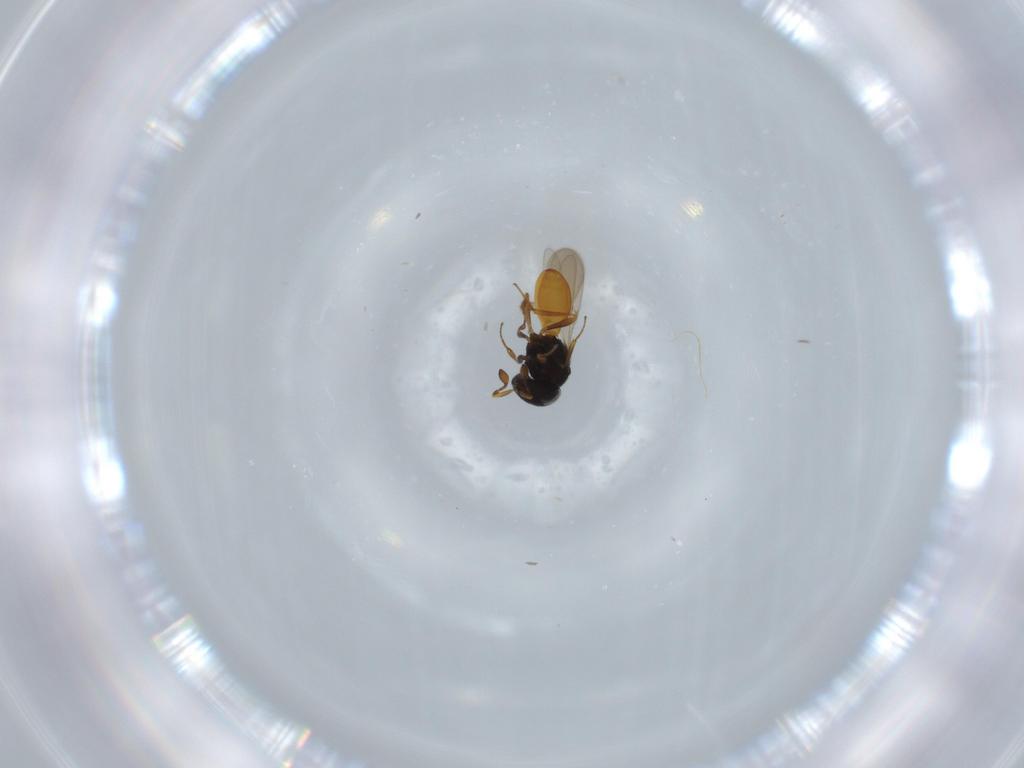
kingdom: Animalia
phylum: Arthropoda
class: Insecta
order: Hymenoptera
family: Scelionidae
